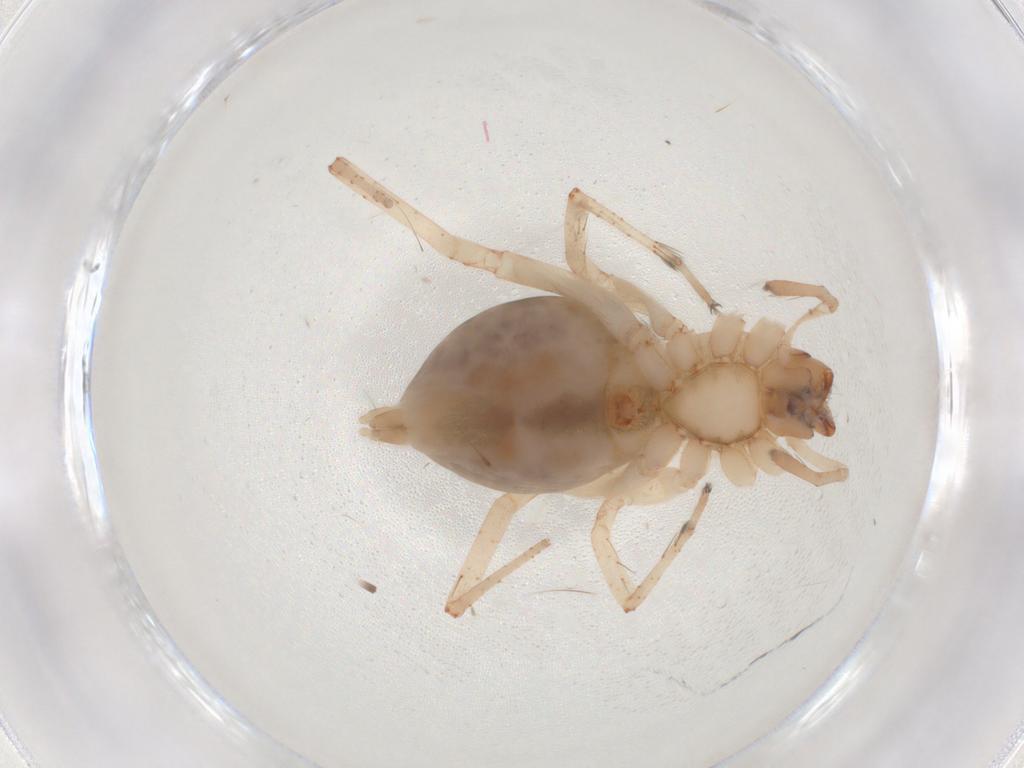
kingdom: Animalia
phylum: Arthropoda
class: Arachnida
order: Araneae
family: Anyphaenidae
